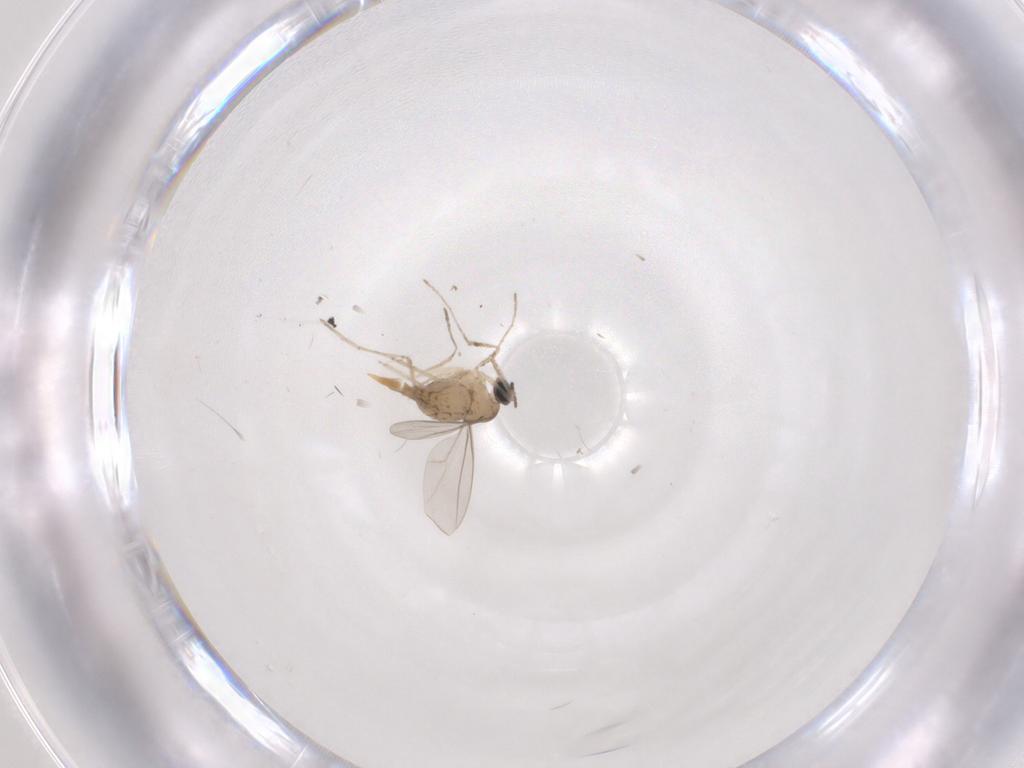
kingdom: Animalia
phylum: Arthropoda
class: Insecta
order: Diptera
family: Cecidomyiidae
